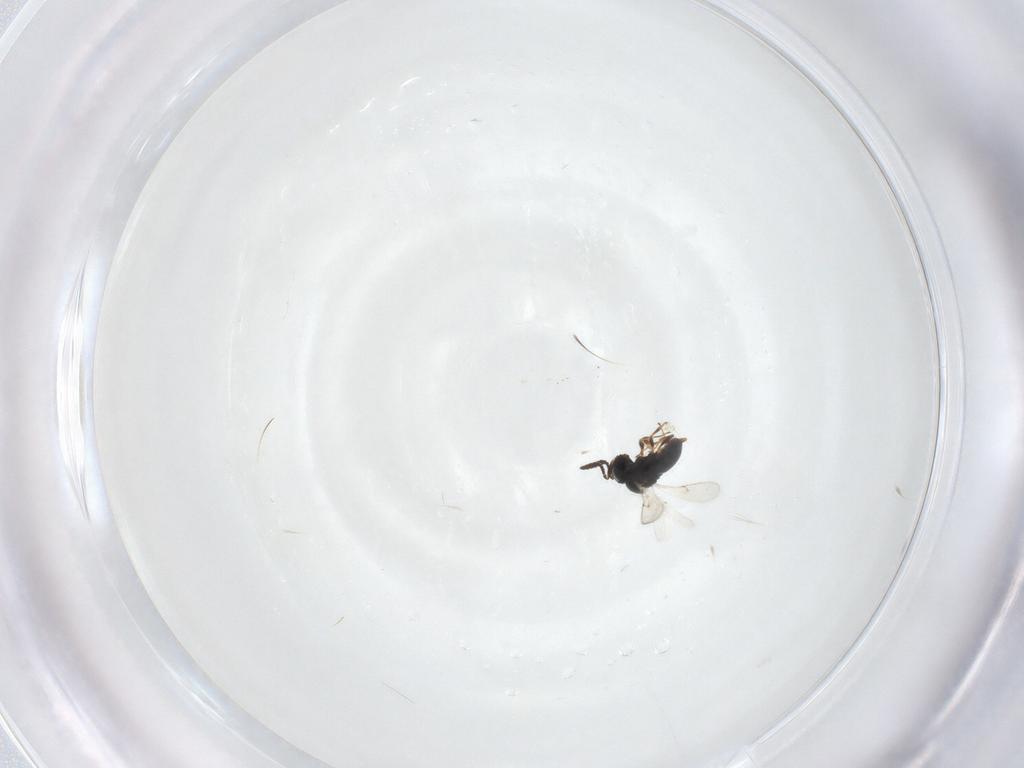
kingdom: Animalia
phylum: Arthropoda
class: Insecta
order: Hymenoptera
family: Scelionidae
